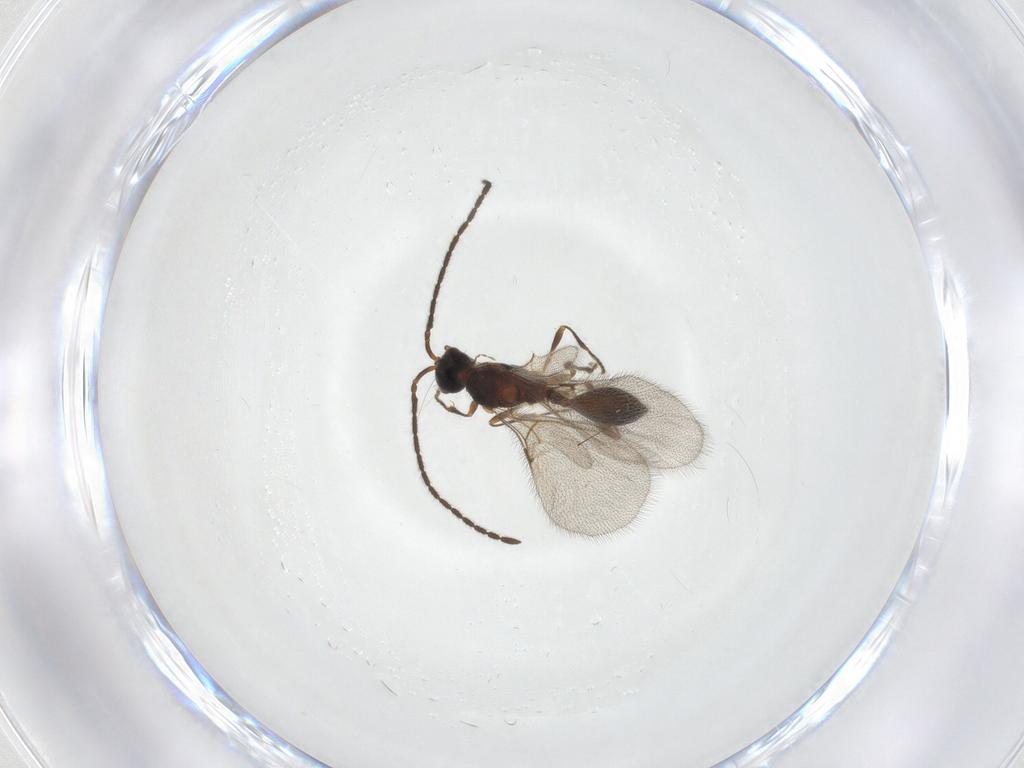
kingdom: Animalia
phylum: Arthropoda
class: Insecta
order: Hymenoptera
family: Diapriidae
